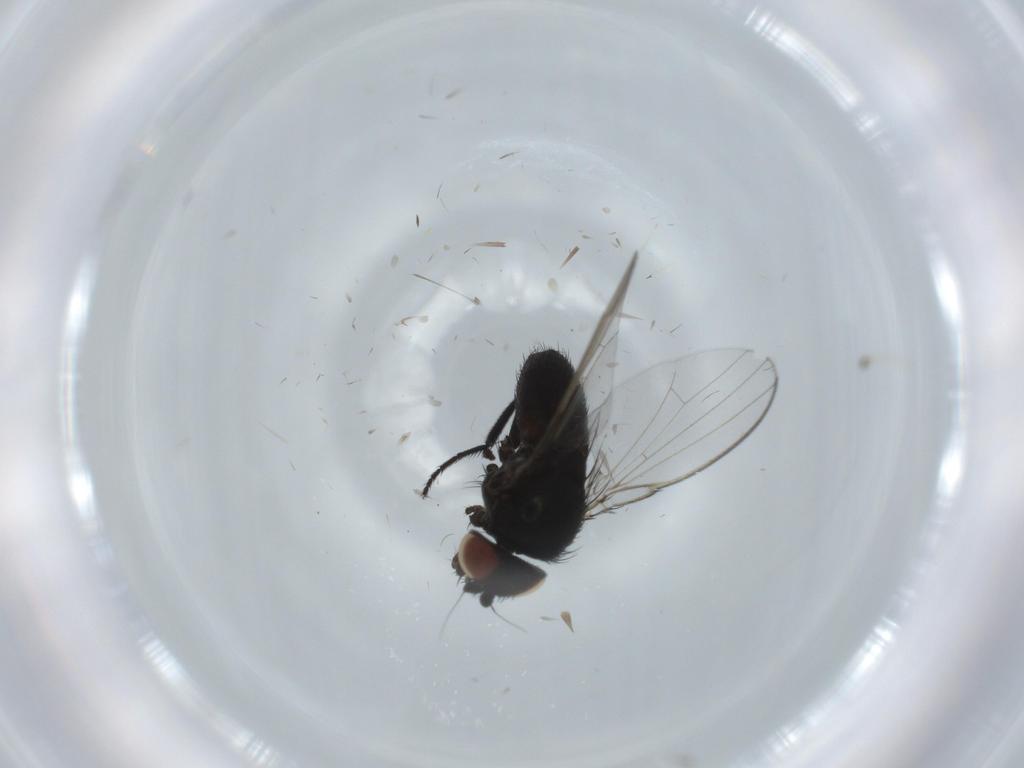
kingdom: Animalia
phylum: Arthropoda
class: Insecta
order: Diptera
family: Milichiidae
